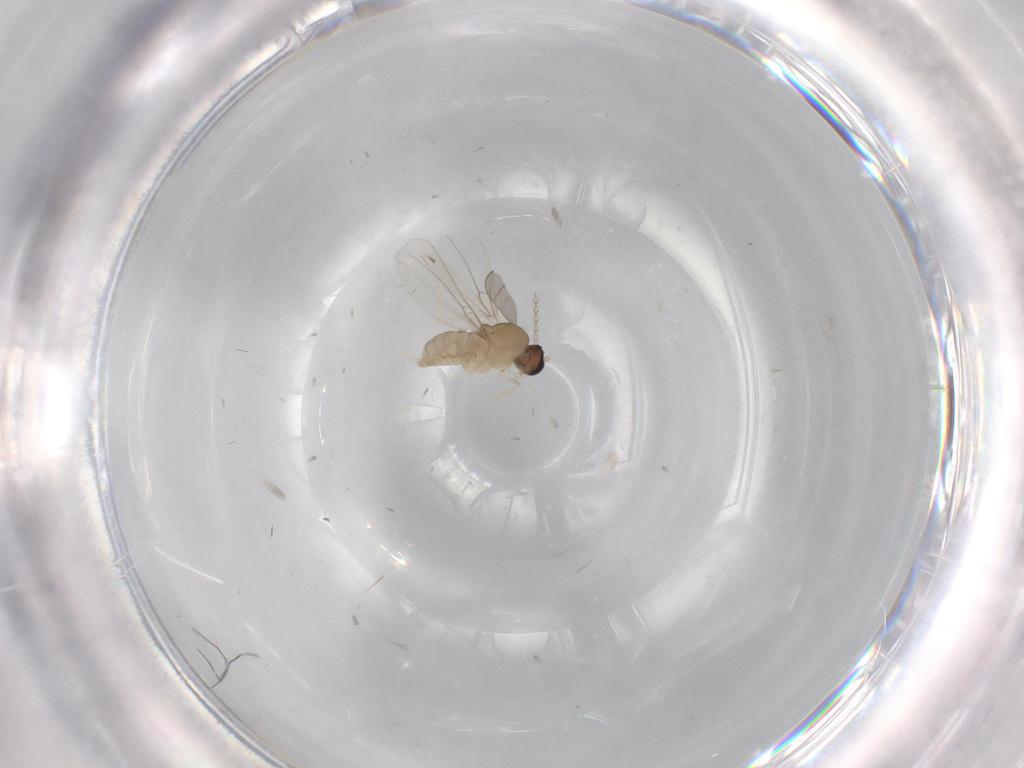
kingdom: Animalia
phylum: Arthropoda
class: Insecta
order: Diptera
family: Cecidomyiidae
